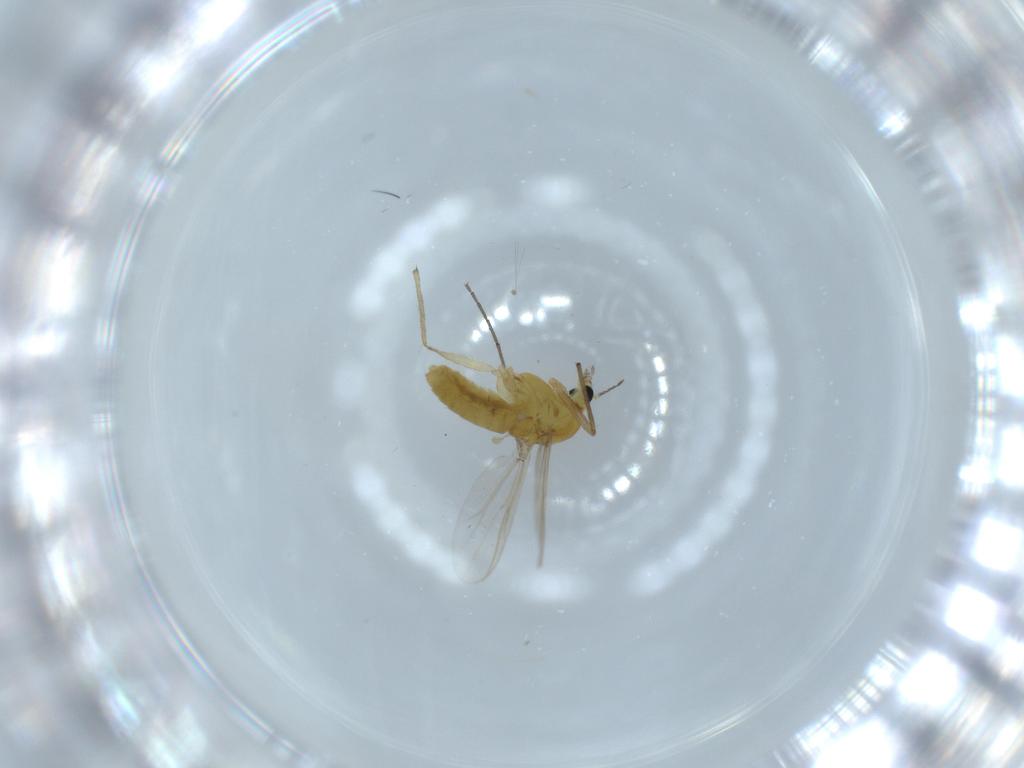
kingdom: Animalia
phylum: Arthropoda
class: Insecta
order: Diptera
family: Chironomidae
